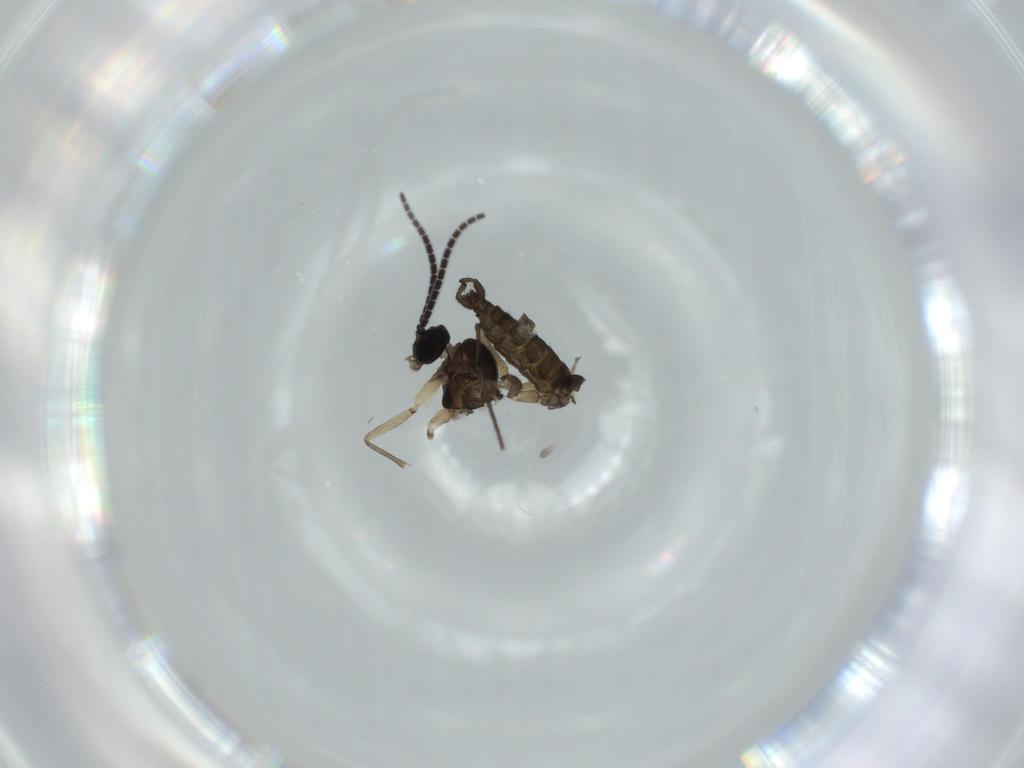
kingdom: Animalia
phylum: Arthropoda
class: Insecta
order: Diptera
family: Sciaridae
